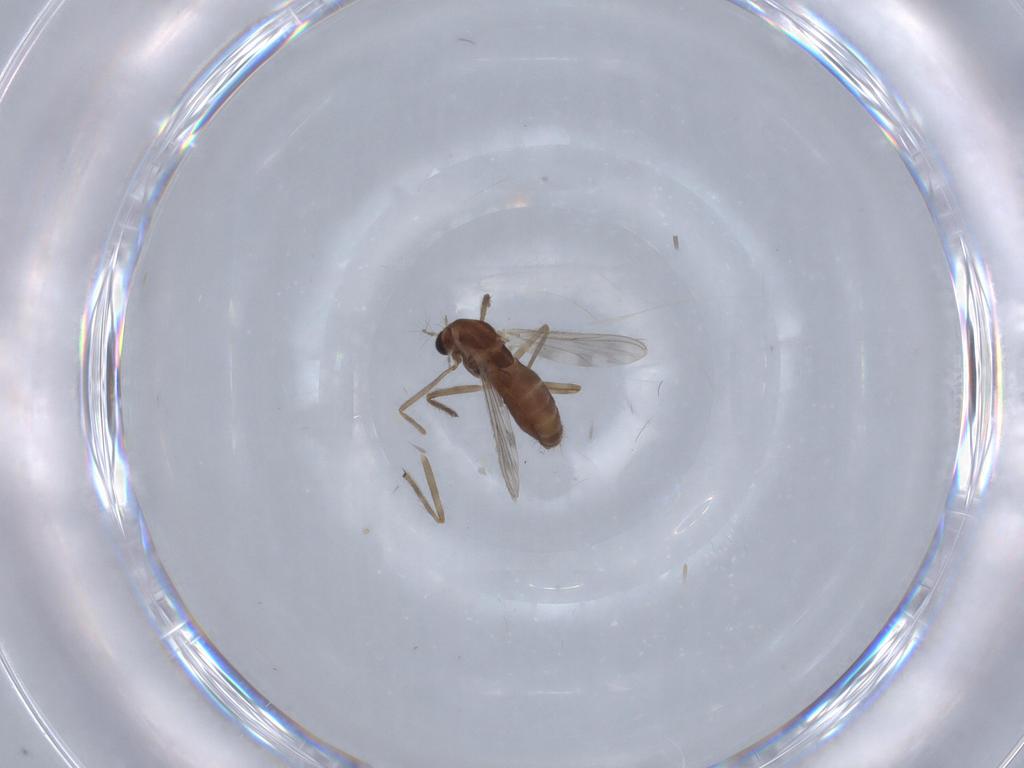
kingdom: Animalia
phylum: Arthropoda
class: Insecta
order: Diptera
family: Chironomidae
